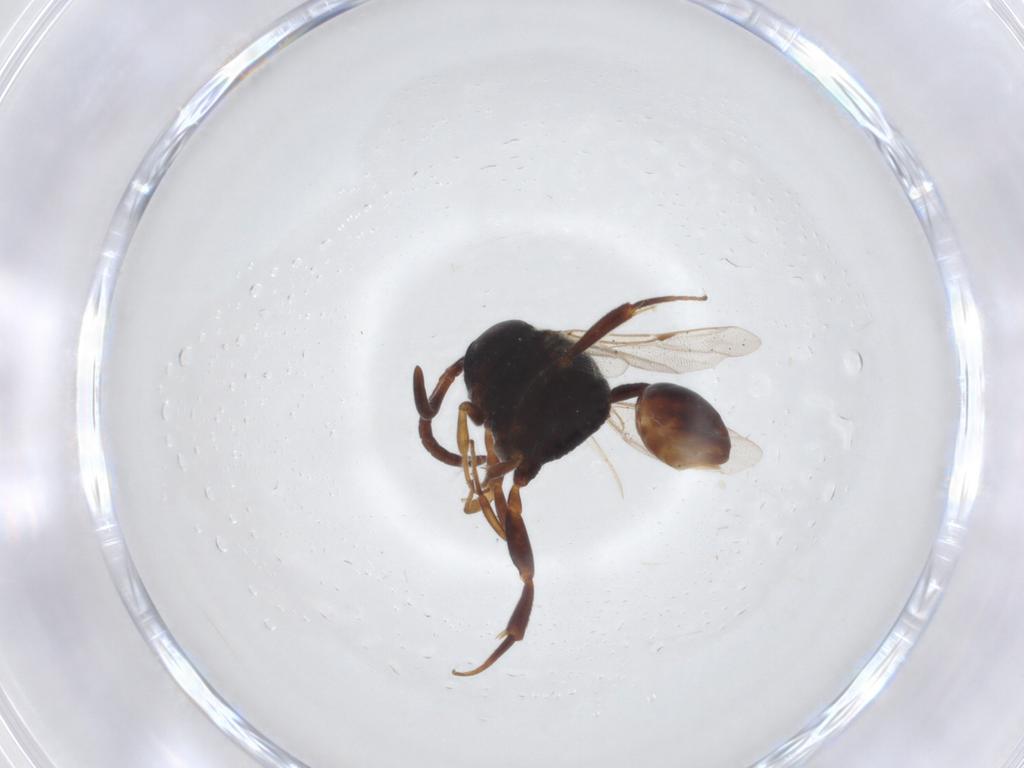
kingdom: Animalia
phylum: Arthropoda
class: Insecta
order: Hymenoptera
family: Evaniidae
